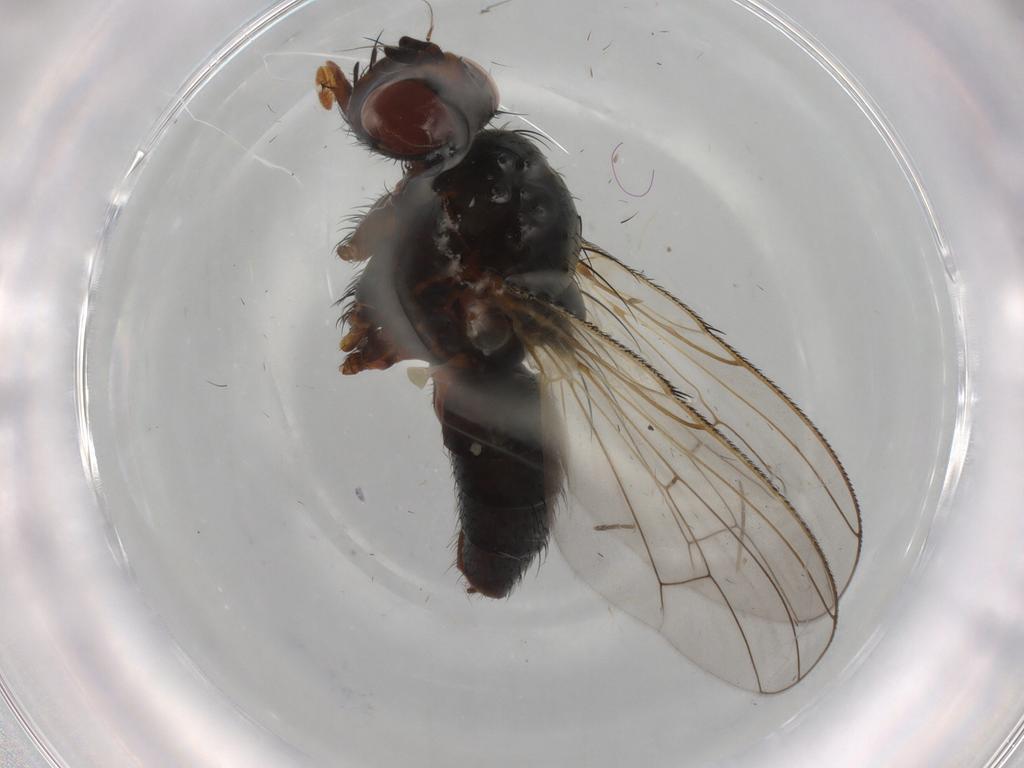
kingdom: Animalia
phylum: Arthropoda
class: Insecta
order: Diptera
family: Anthomyiidae
